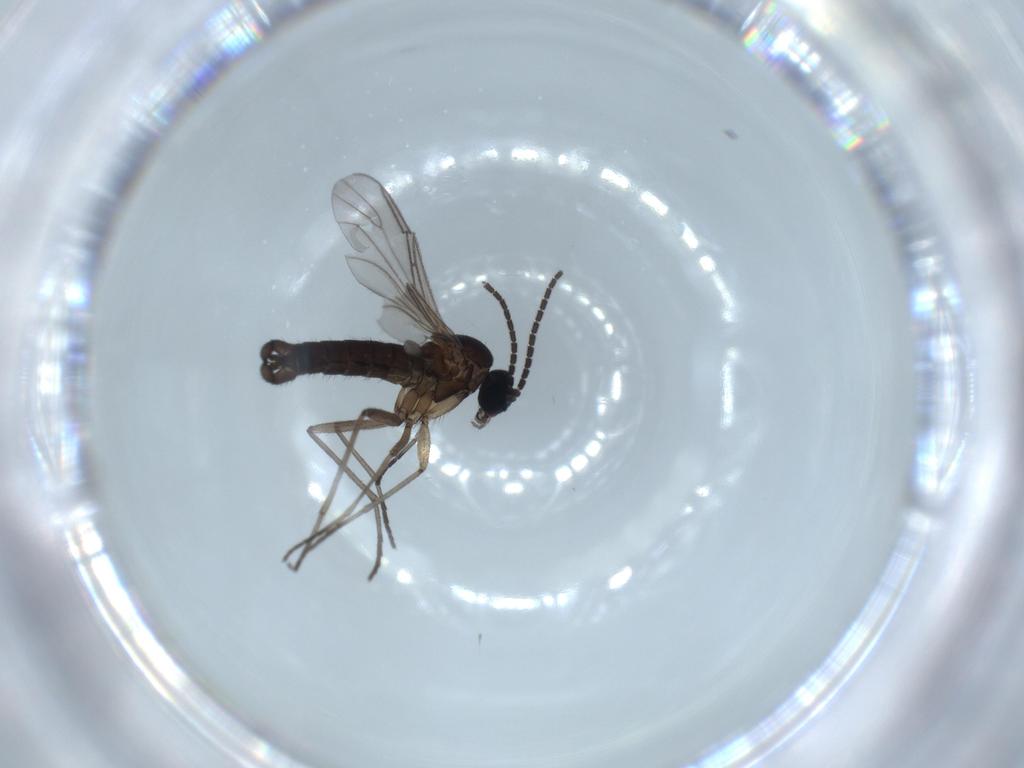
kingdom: Animalia
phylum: Arthropoda
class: Insecta
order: Diptera
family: Sciaridae
